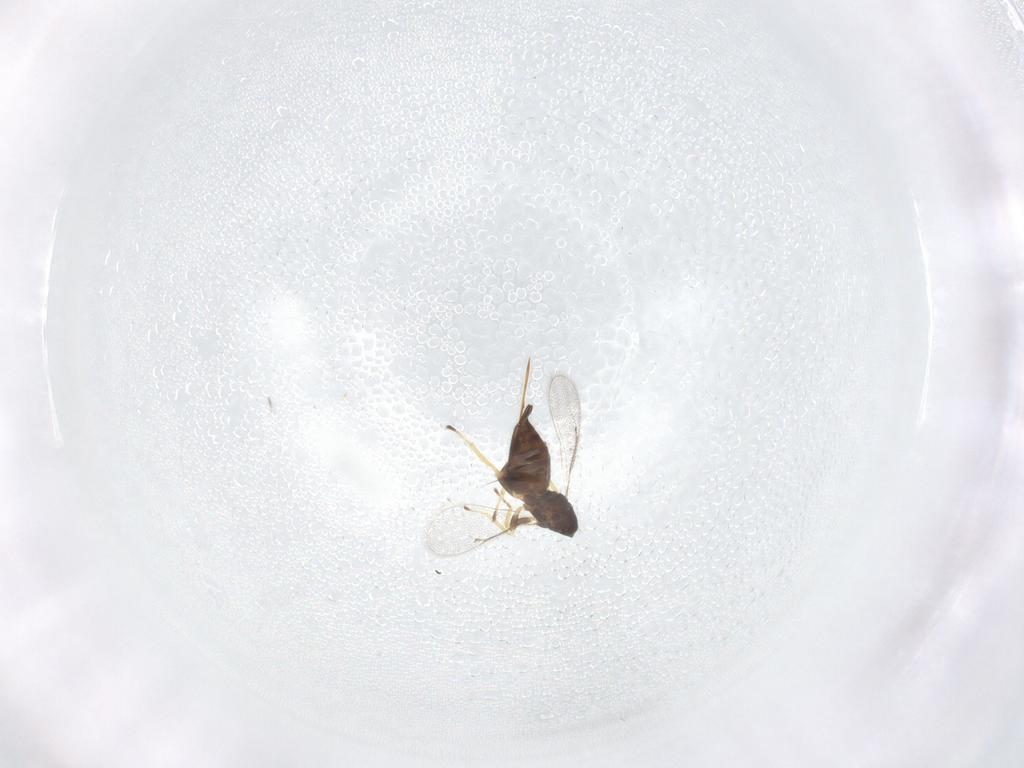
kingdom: Animalia
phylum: Arthropoda
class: Insecta
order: Hymenoptera
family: Eulophidae
